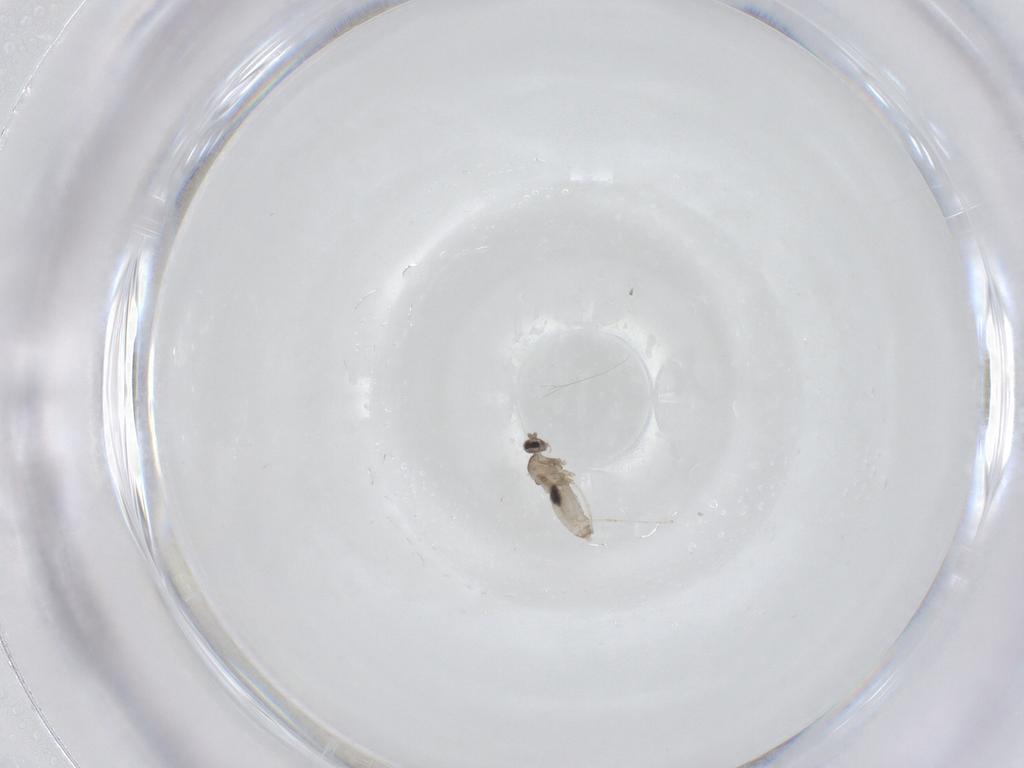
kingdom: Animalia
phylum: Arthropoda
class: Insecta
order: Diptera
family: Cecidomyiidae
